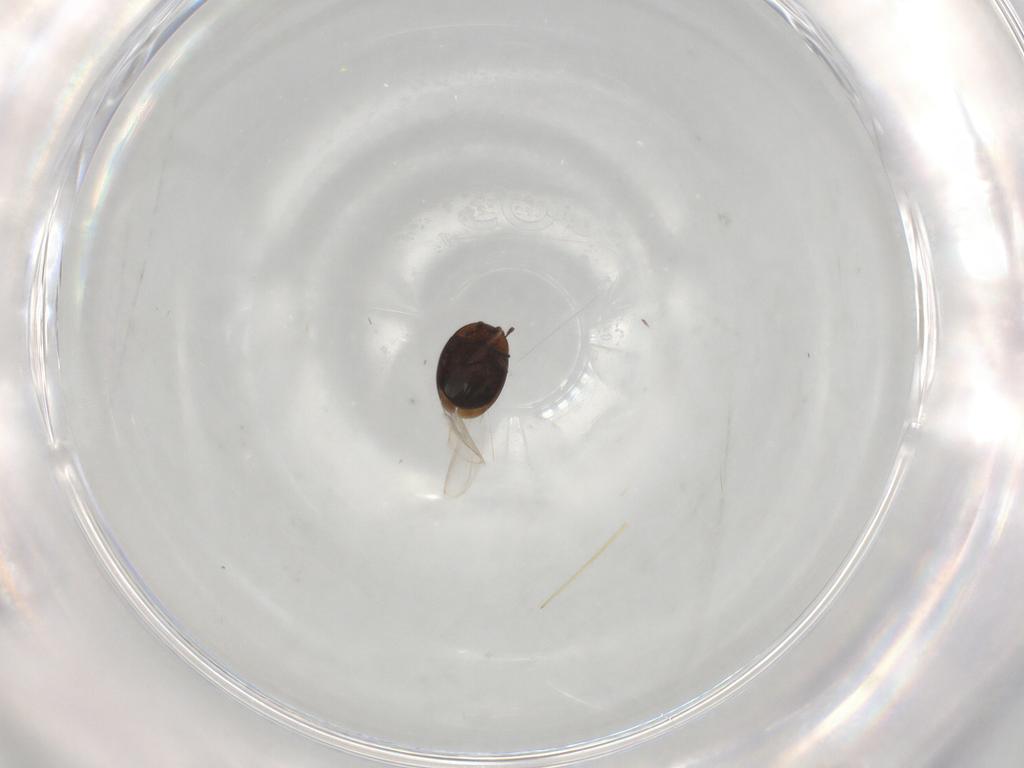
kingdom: Animalia
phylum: Arthropoda
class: Insecta
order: Coleoptera
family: Corylophidae
